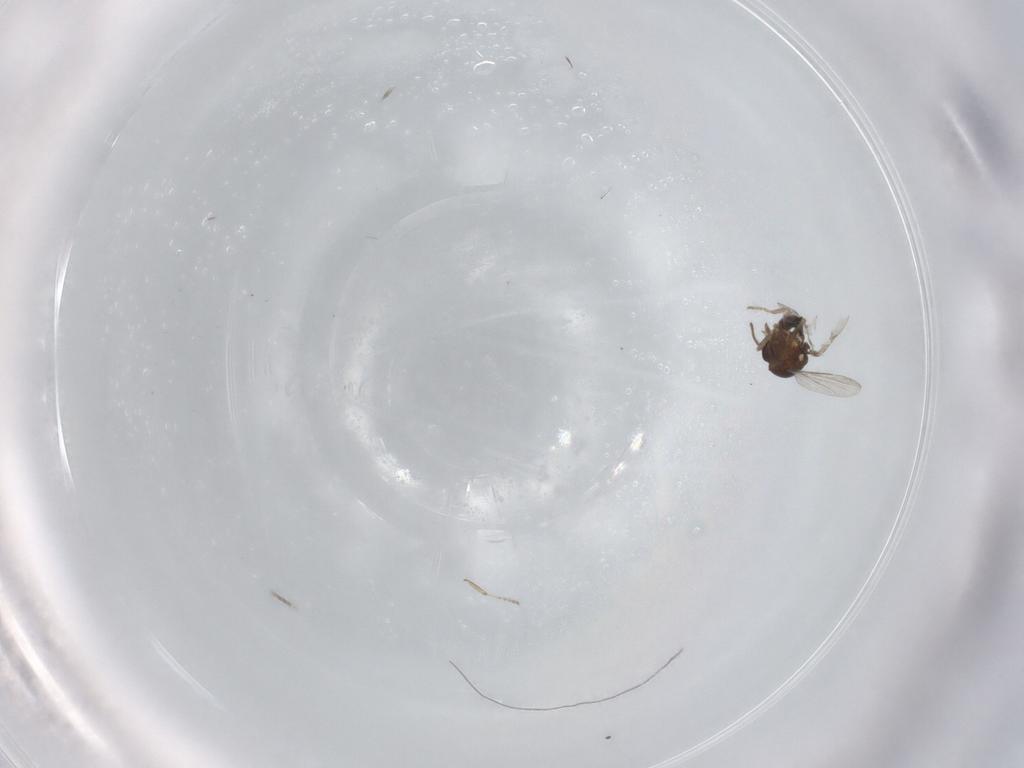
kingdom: Animalia
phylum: Arthropoda
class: Insecta
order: Diptera
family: Ceratopogonidae
